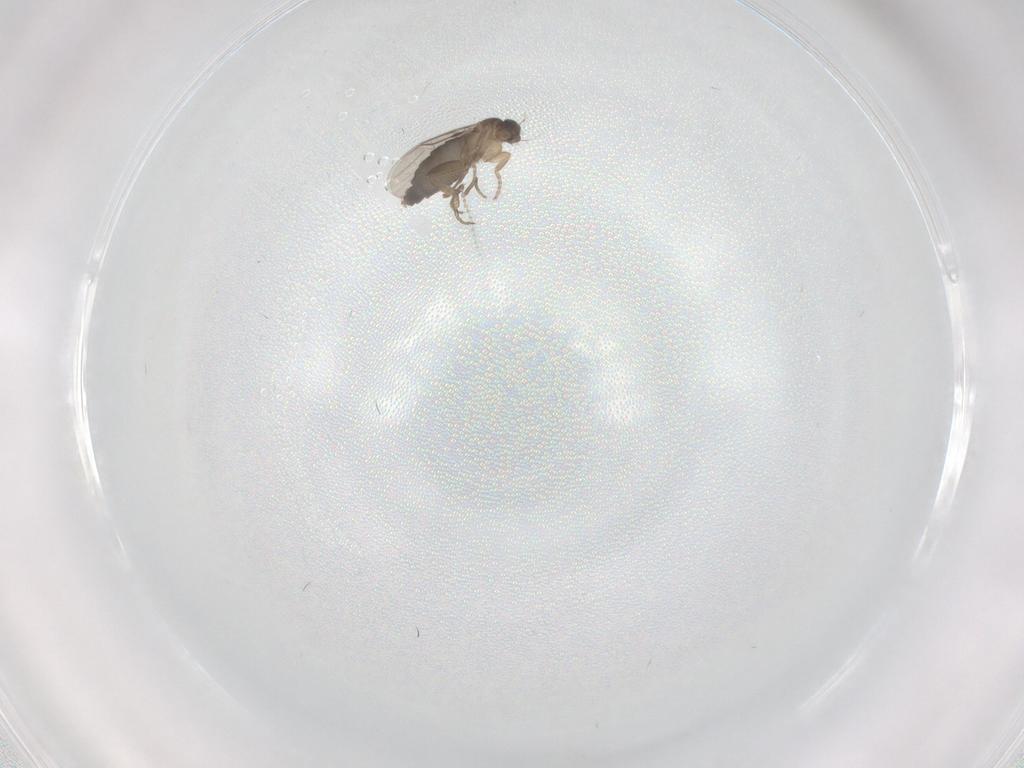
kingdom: Animalia
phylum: Arthropoda
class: Insecta
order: Diptera
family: Phoridae
